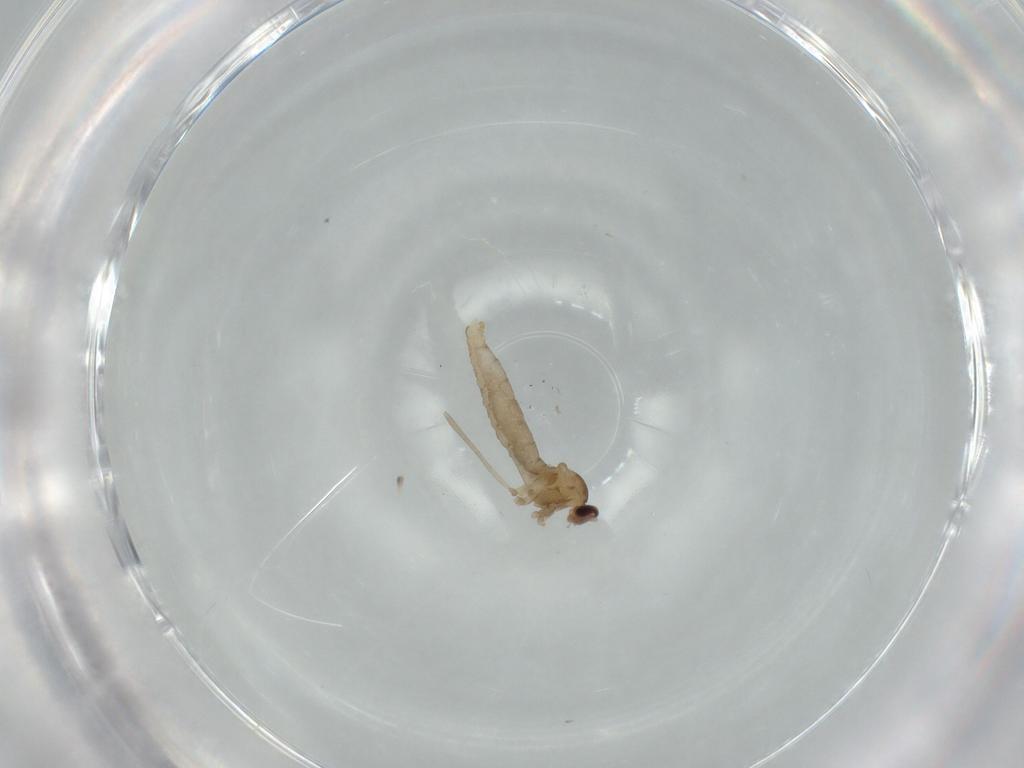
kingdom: Animalia
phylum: Arthropoda
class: Insecta
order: Diptera
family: Cecidomyiidae
